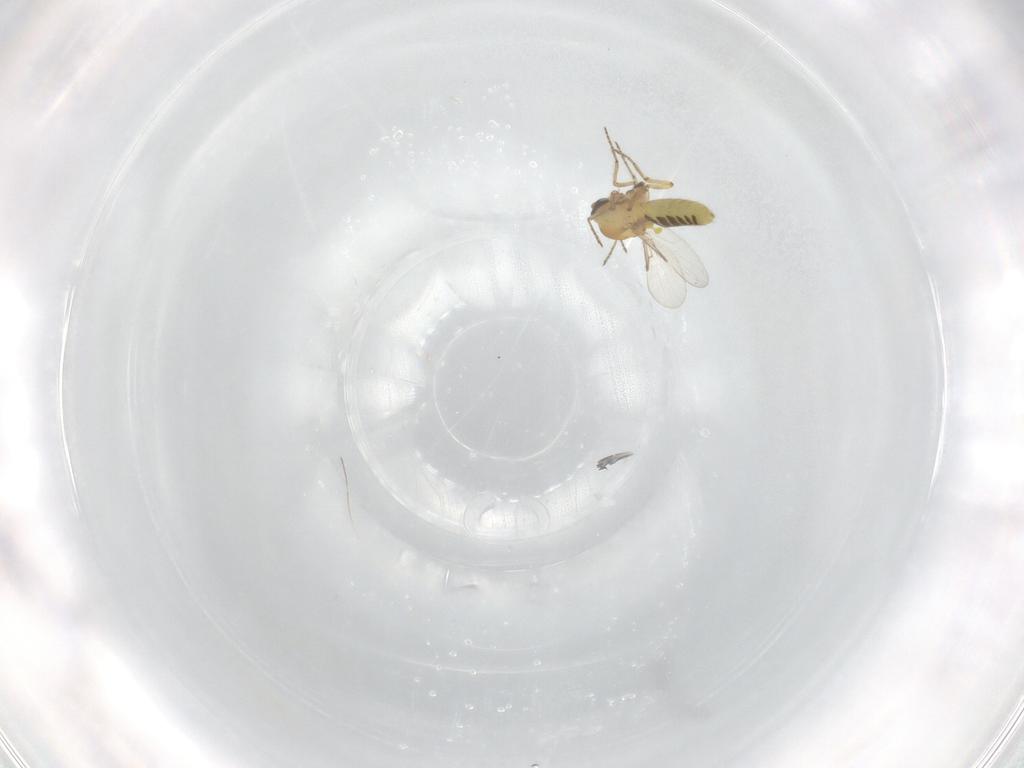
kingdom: Animalia
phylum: Arthropoda
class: Insecta
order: Diptera
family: Ceratopogonidae
